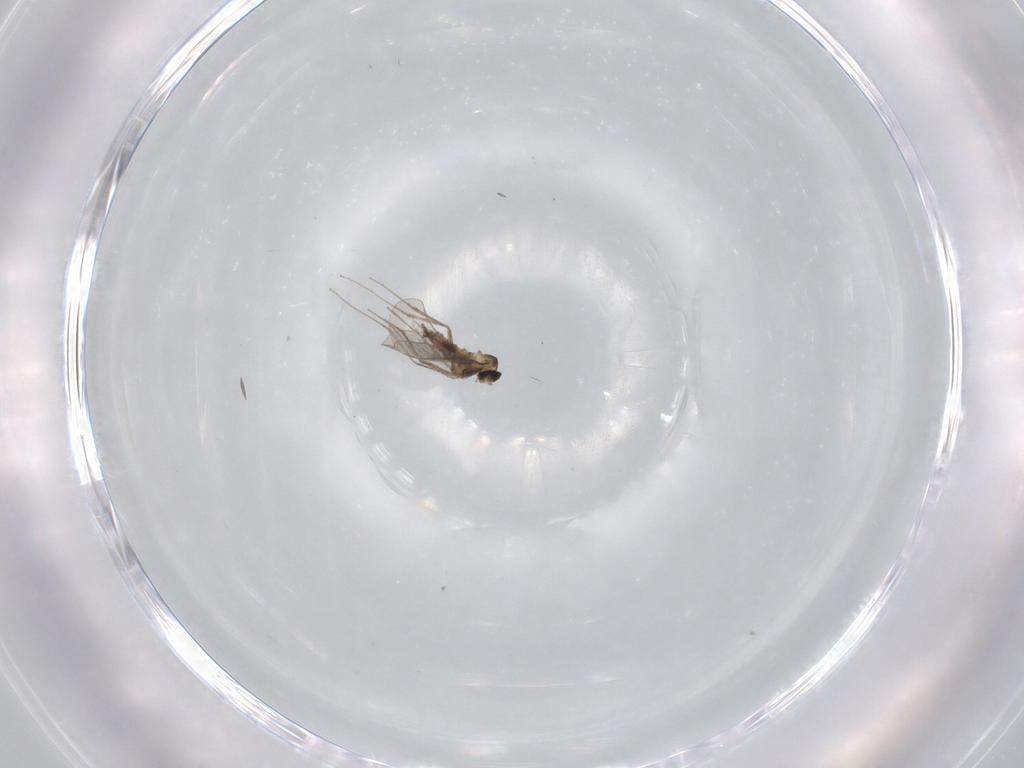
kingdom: Animalia
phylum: Arthropoda
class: Insecta
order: Diptera
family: Cecidomyiidae
